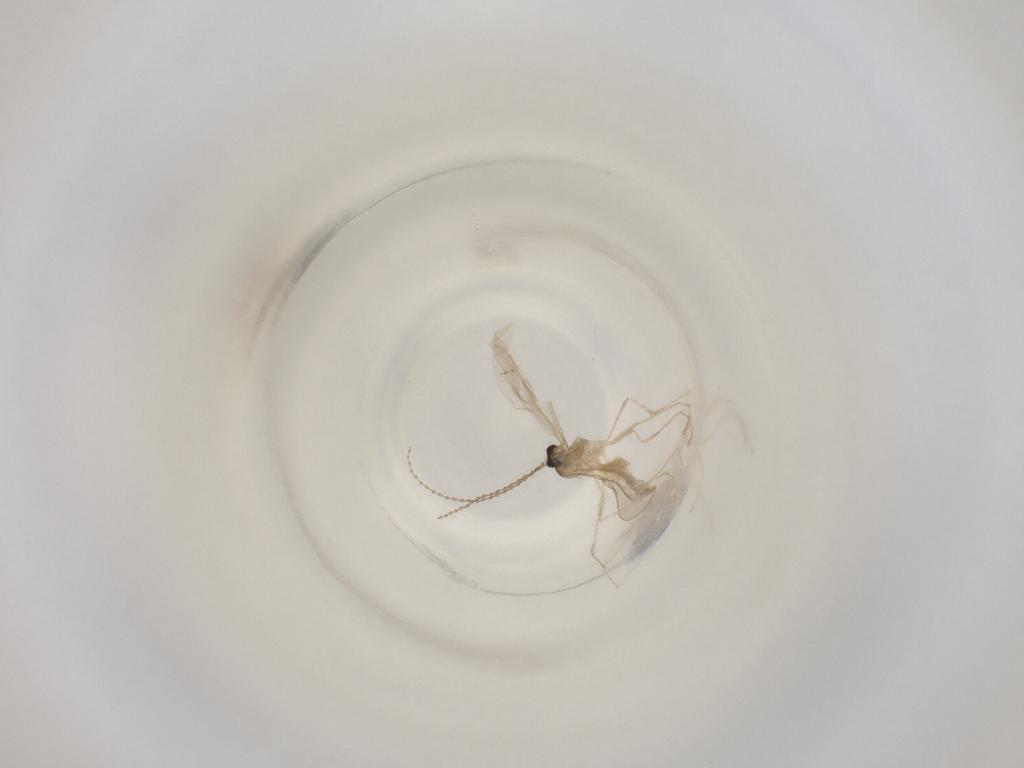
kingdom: Animalia
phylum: Arthropoda
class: Insecta
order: Diptera
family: Cecidomyiidae
